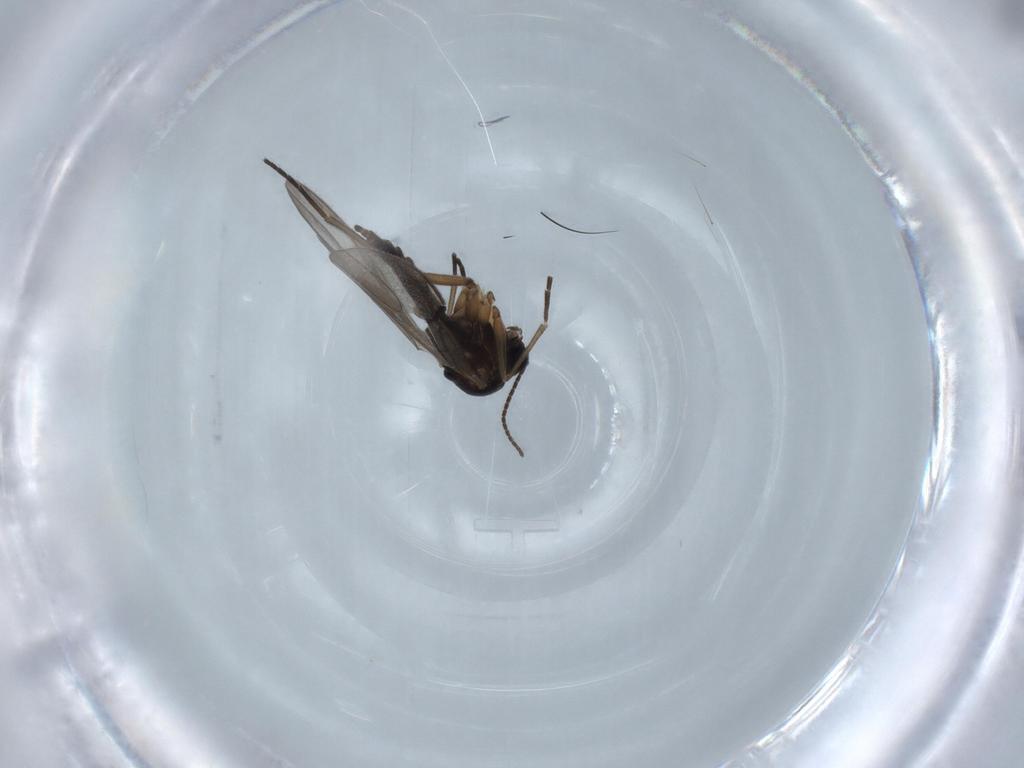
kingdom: Animalia
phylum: Arthropoda
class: Insecta
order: Diptera
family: Sciaridae
